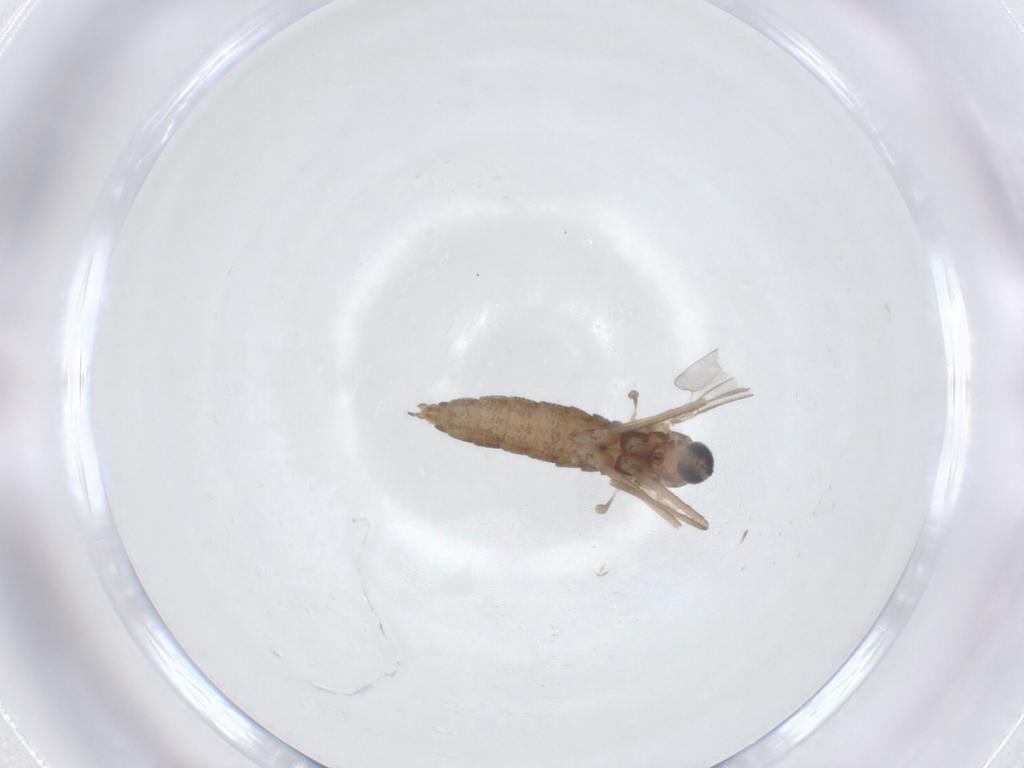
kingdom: Animalia
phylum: Arthropoda
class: Insecta
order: Diptera
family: Cecidomyiidae
